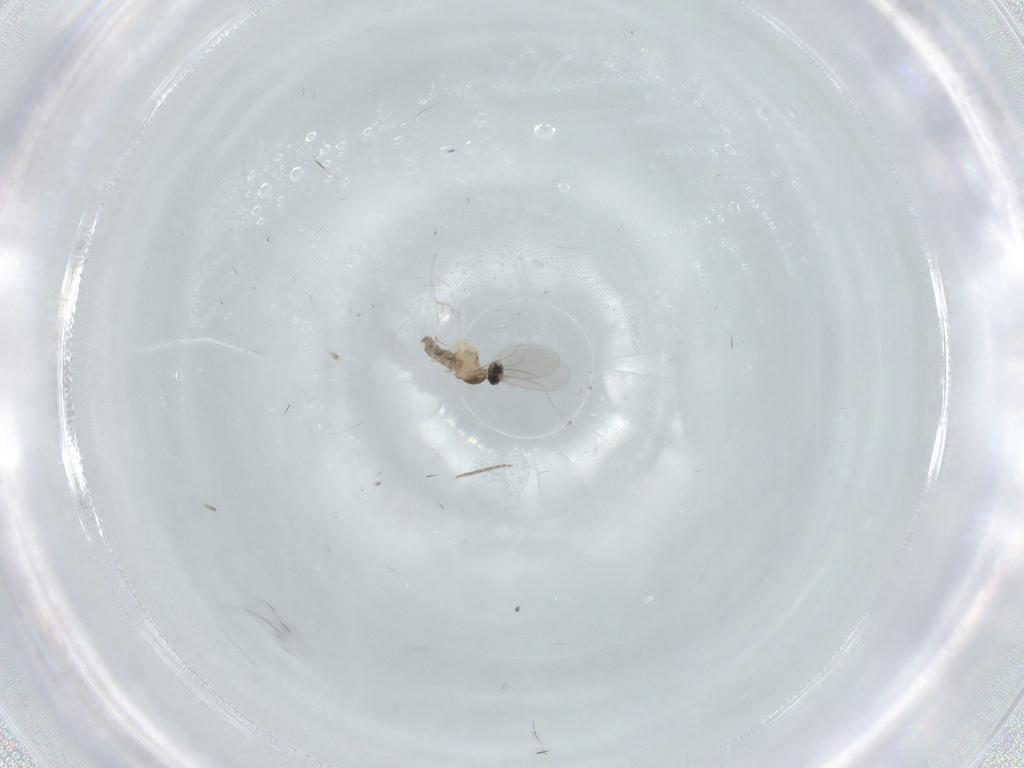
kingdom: Animalia
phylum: Arthropoda
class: Insecta
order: Diptera
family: Cecidomyiidae
